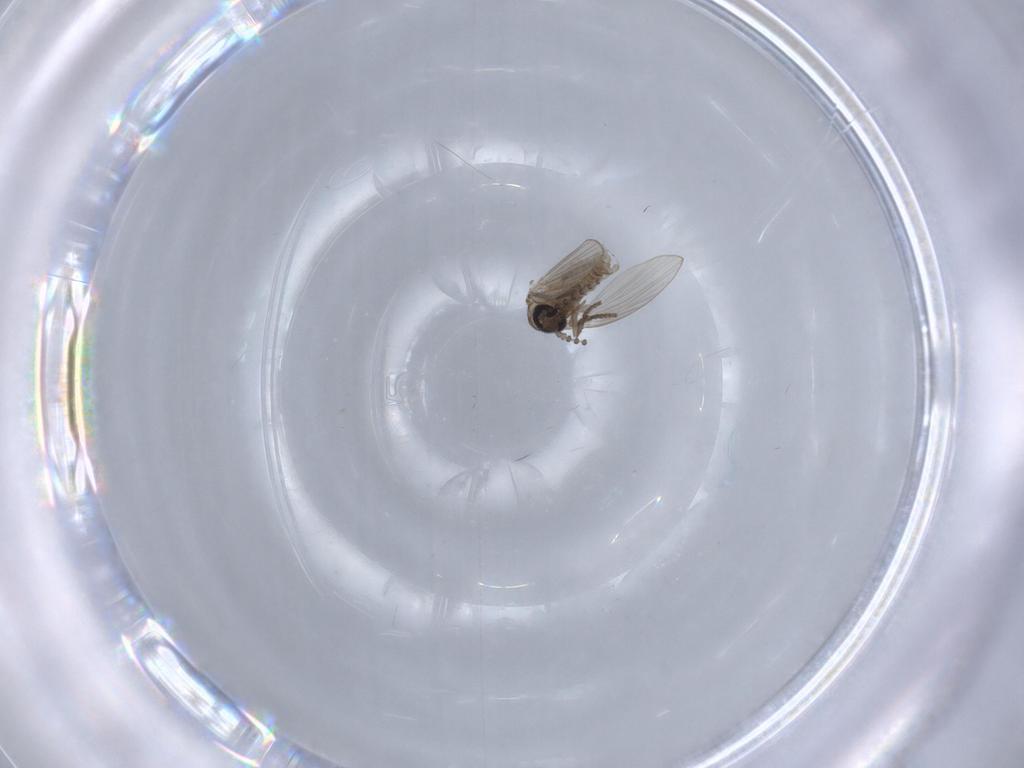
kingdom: Animalia
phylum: Arthropoda
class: Insecta
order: Diptera
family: Psychodidae
